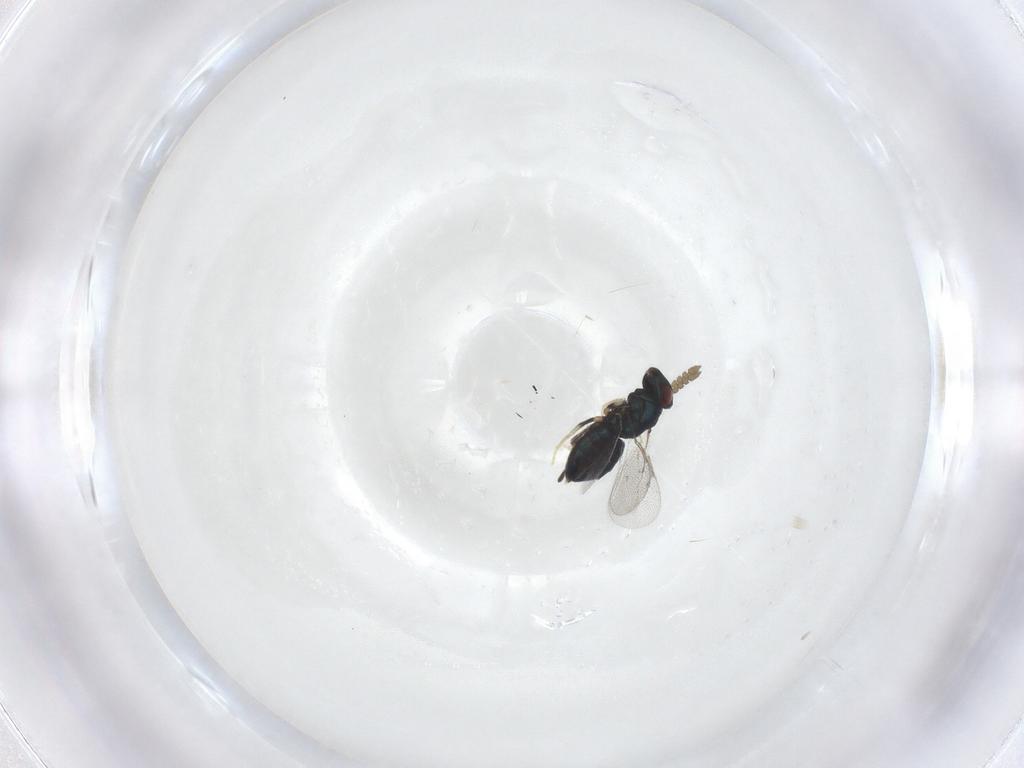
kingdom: Animalia
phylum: Arthropoda
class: Insecta
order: Hymenoptera
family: Eulophidae
